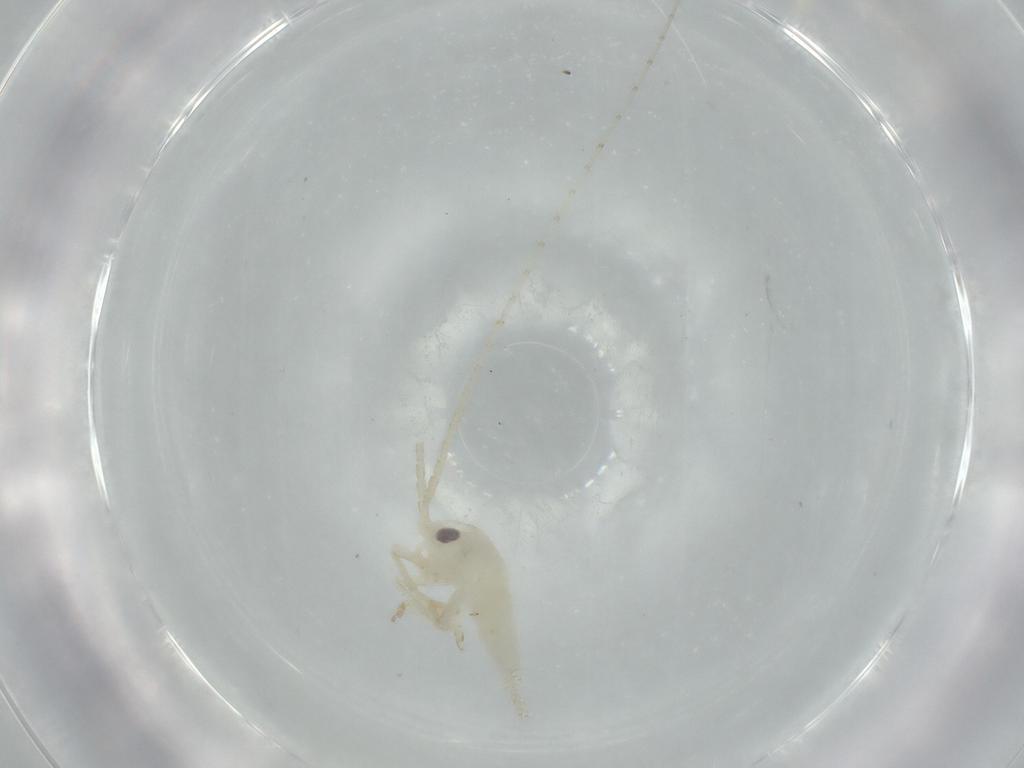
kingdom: Animalia
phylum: Arthropoda
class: Insecta
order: Orthoptera
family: Trigonidiidae
